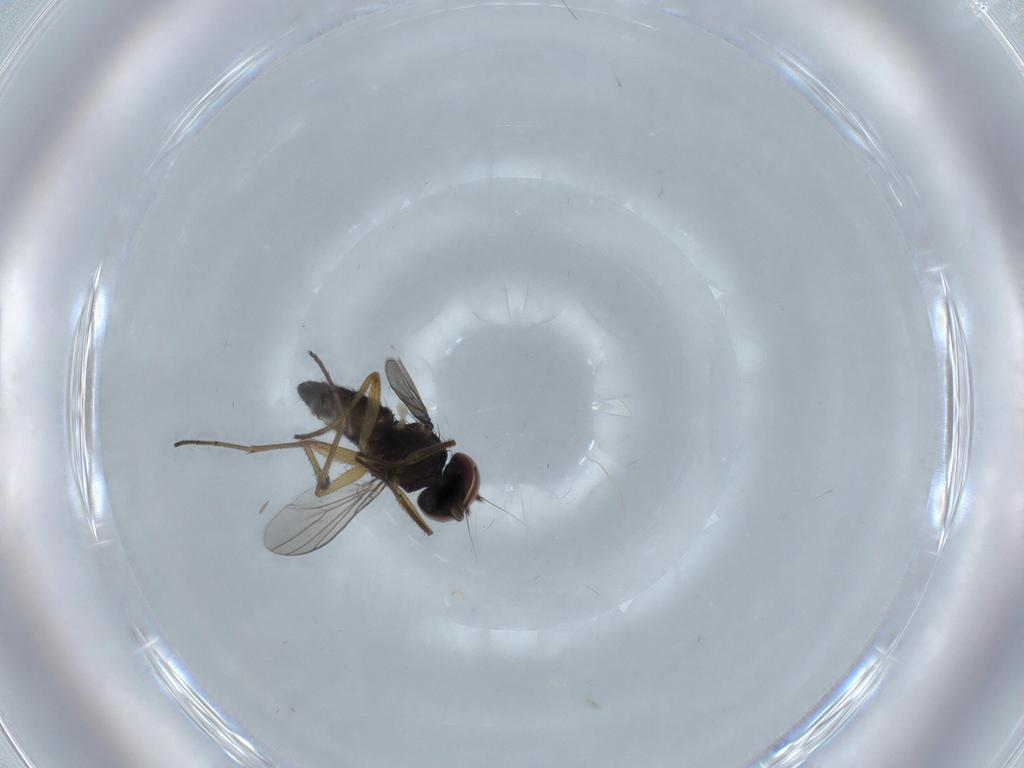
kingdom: Animalia
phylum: Arthropoda
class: Insecta
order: Diptera
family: Dolichopodidae
